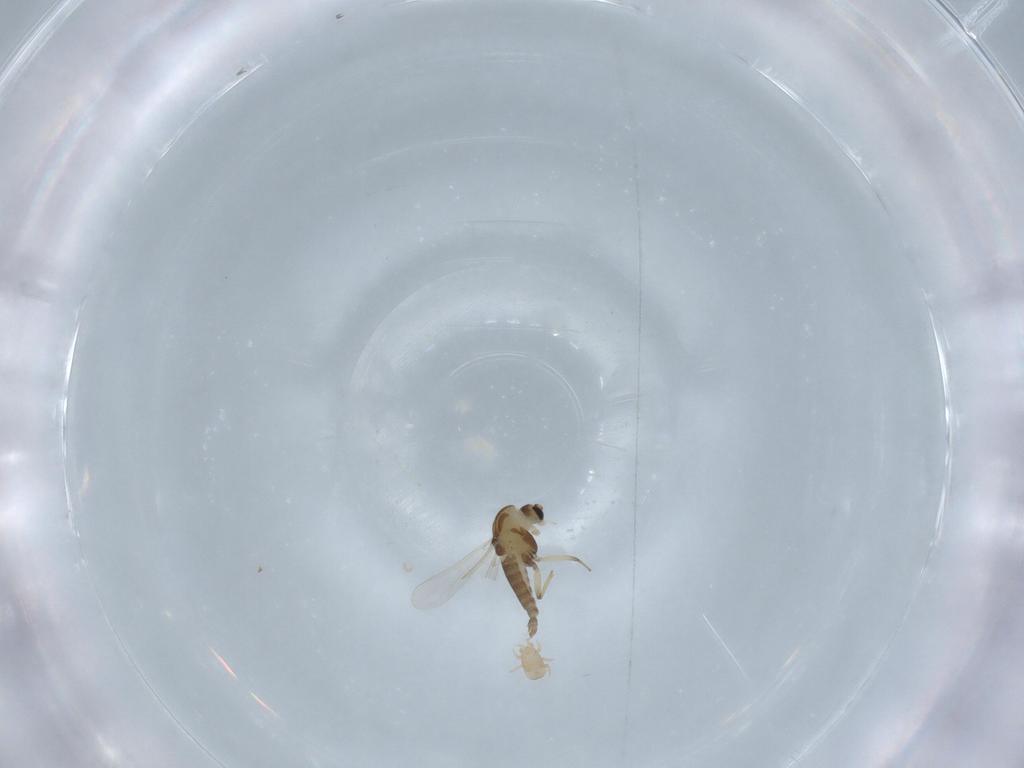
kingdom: Animalia
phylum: Arthropoda
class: Insecta
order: Diptera
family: Chironomidae
